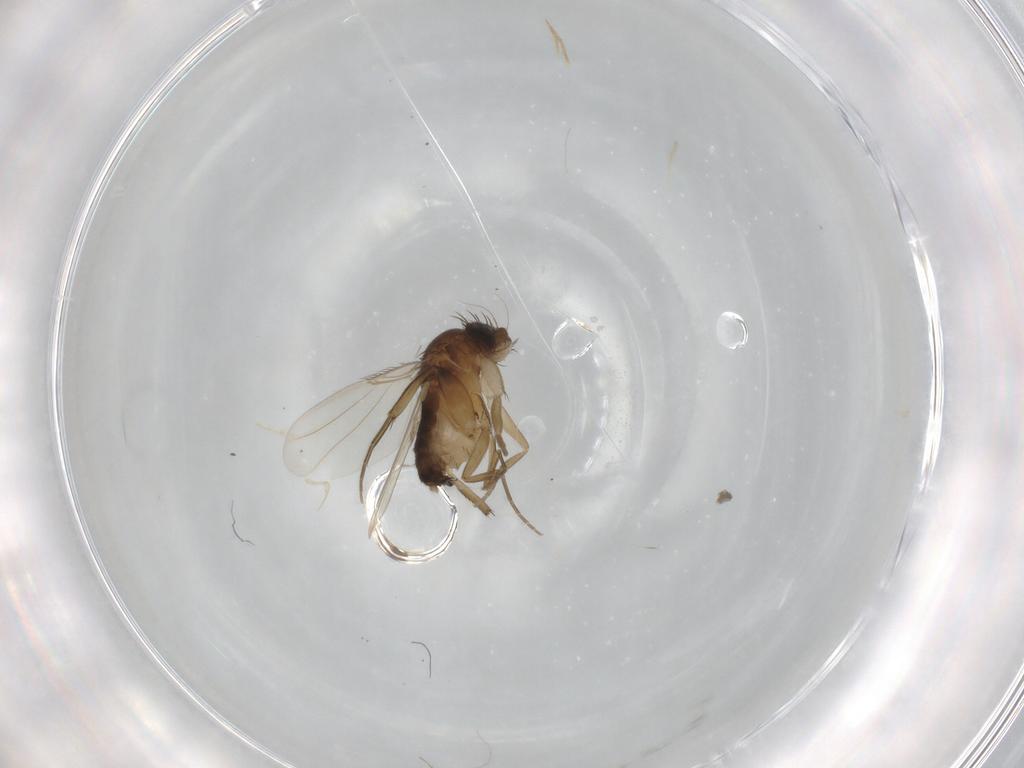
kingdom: Animalia
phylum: Arthropoda
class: Insecta
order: Diptera
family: Phoridae
